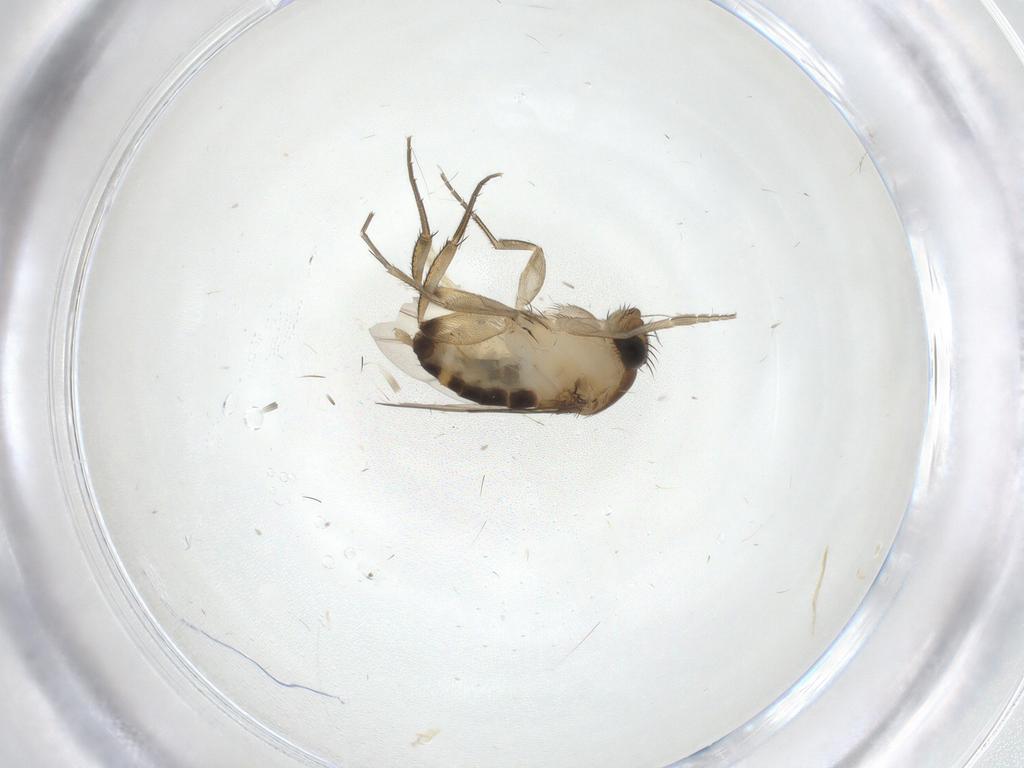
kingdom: Animalia
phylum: Arthropoda
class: Insecta
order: Diptera
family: Phoridae
